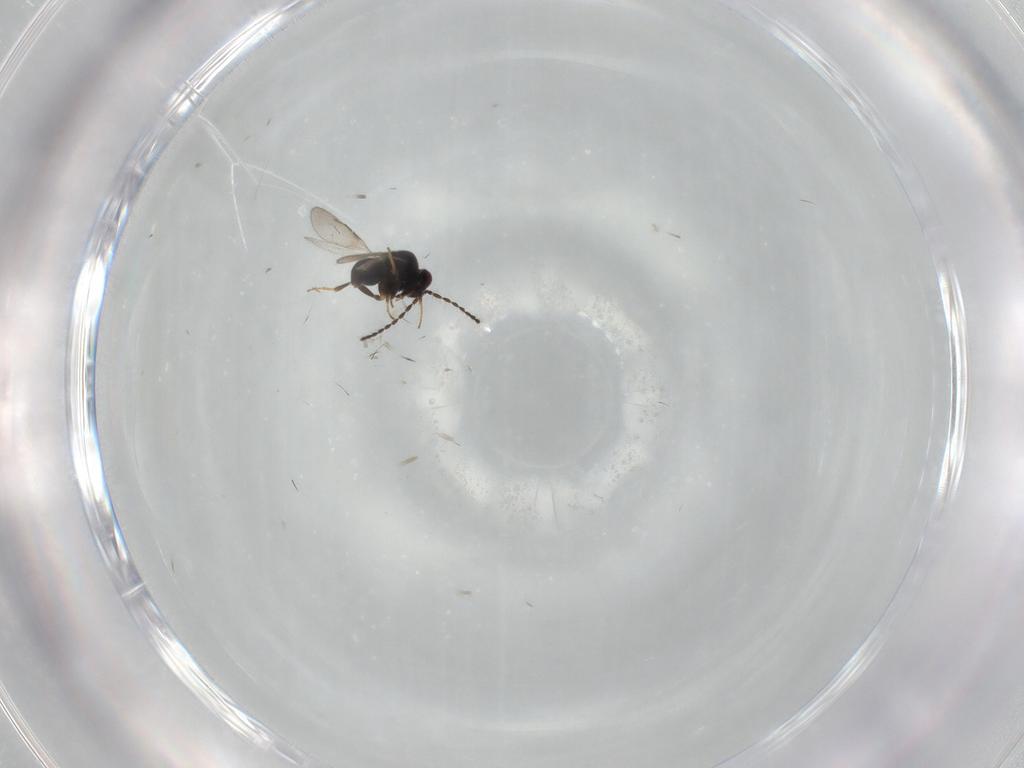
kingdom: Animalia
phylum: Arthropoda
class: Insecta
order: Hymenoptera
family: Ceraphronidae
